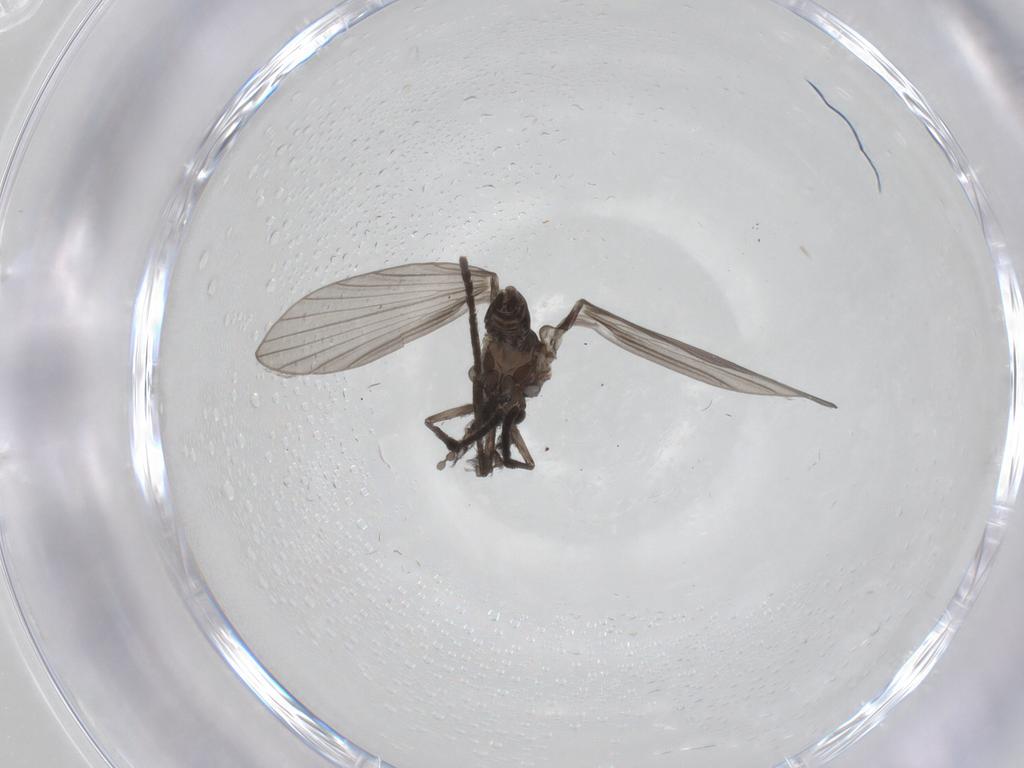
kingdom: Animalia
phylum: Arthropoda
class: Insecta
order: Diptera
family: Psychodidae
